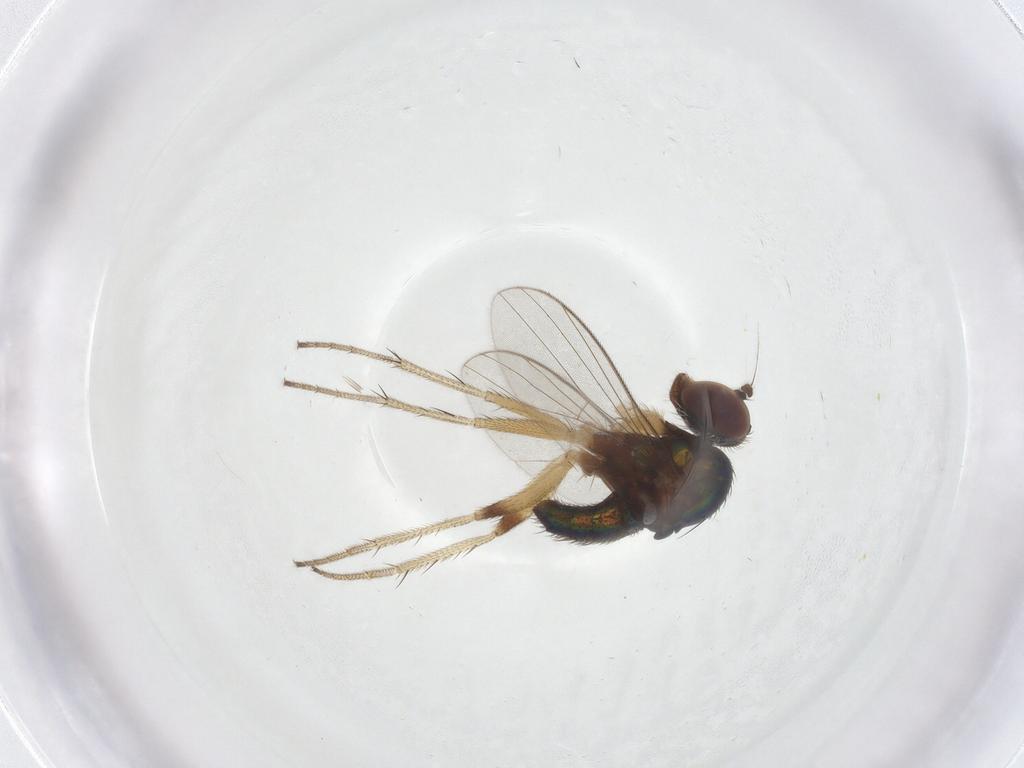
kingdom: Animalia
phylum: Arthropoda
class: Insecta
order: Diptera
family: Dolichopodidae
